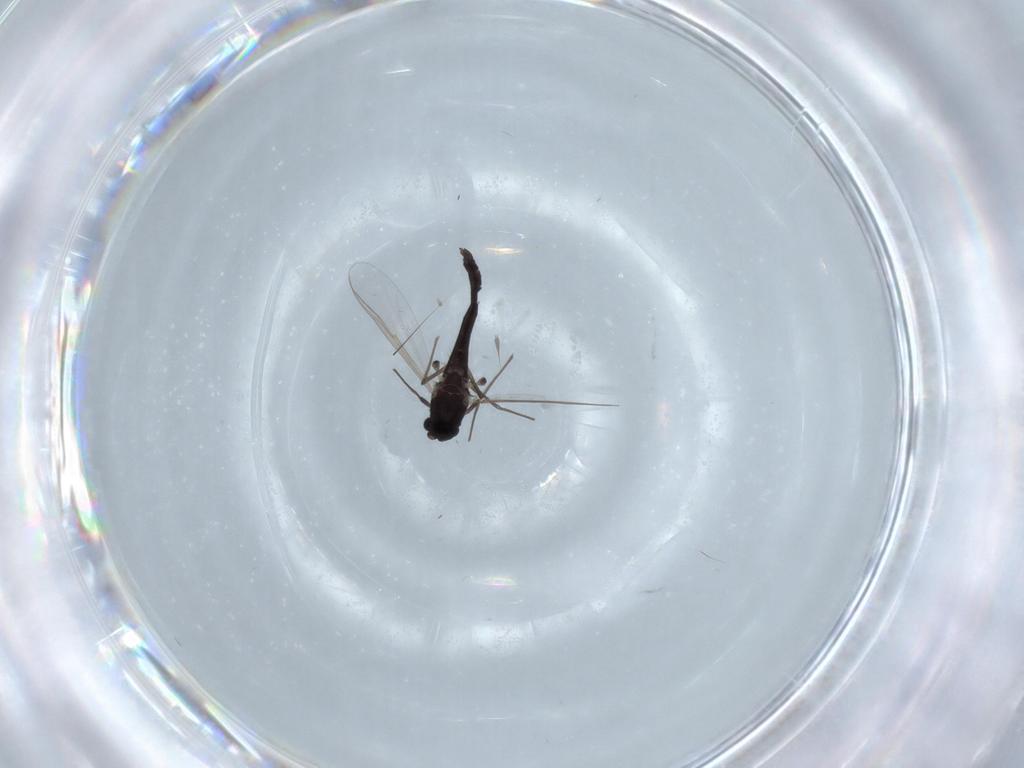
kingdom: Animalia
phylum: Arthropoda
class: Insecta
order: Diptera
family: Chironomidae
